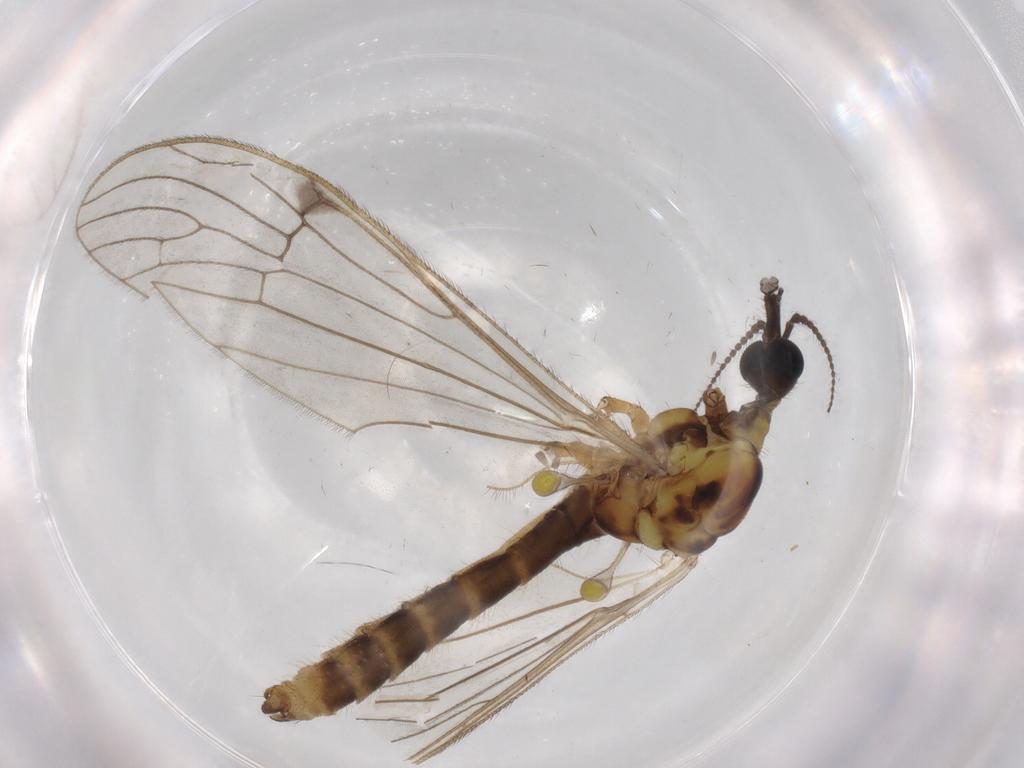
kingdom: Animalia
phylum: Arthropoda
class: Insecta
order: Diptera
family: Limoniidae
